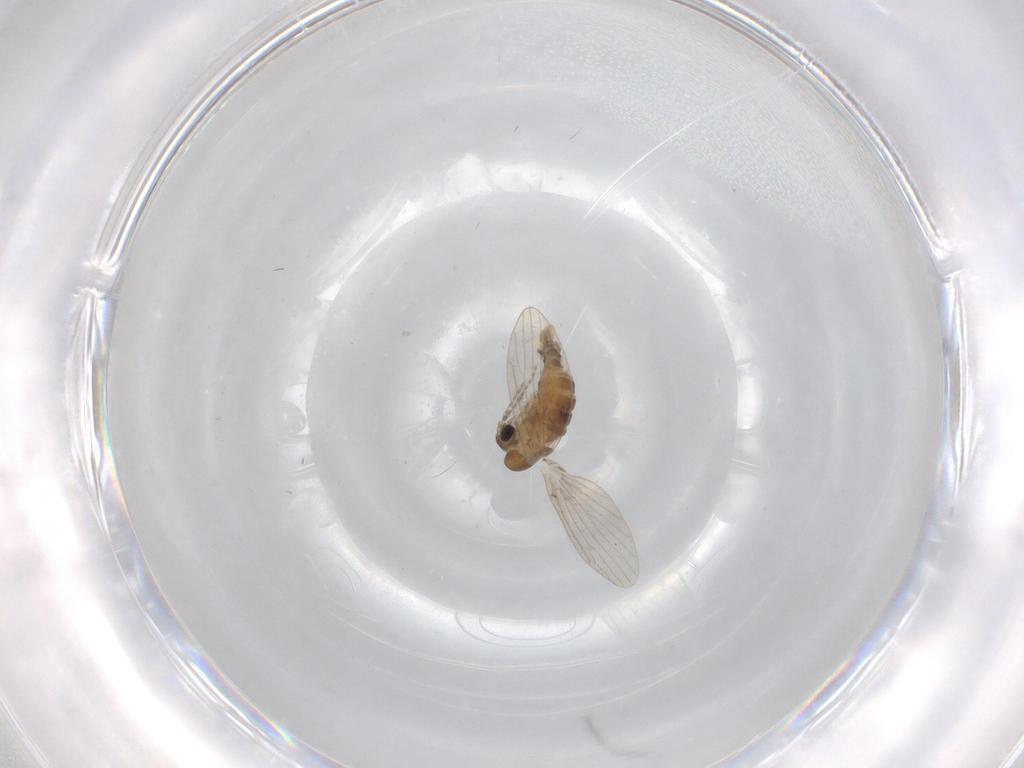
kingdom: Animalia
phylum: Arthropoda
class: Insecta
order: Diptera
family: Psychodidae
